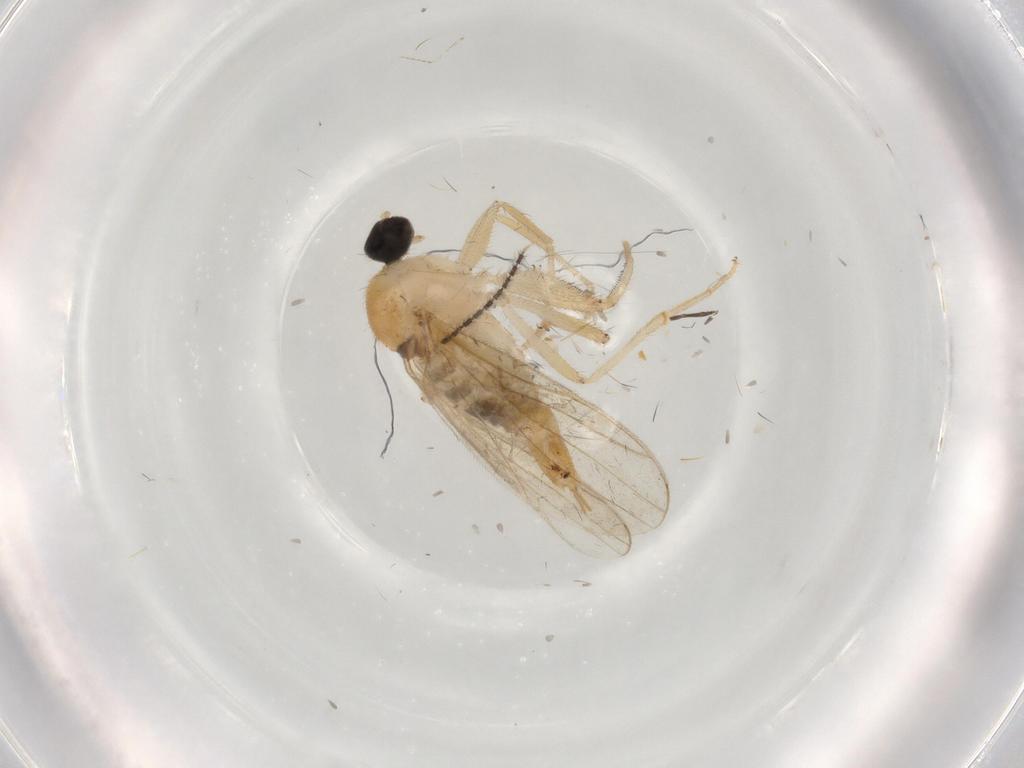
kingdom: Animalia
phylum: Arthropoda
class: Insecta
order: Diptera
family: Hybotidae
